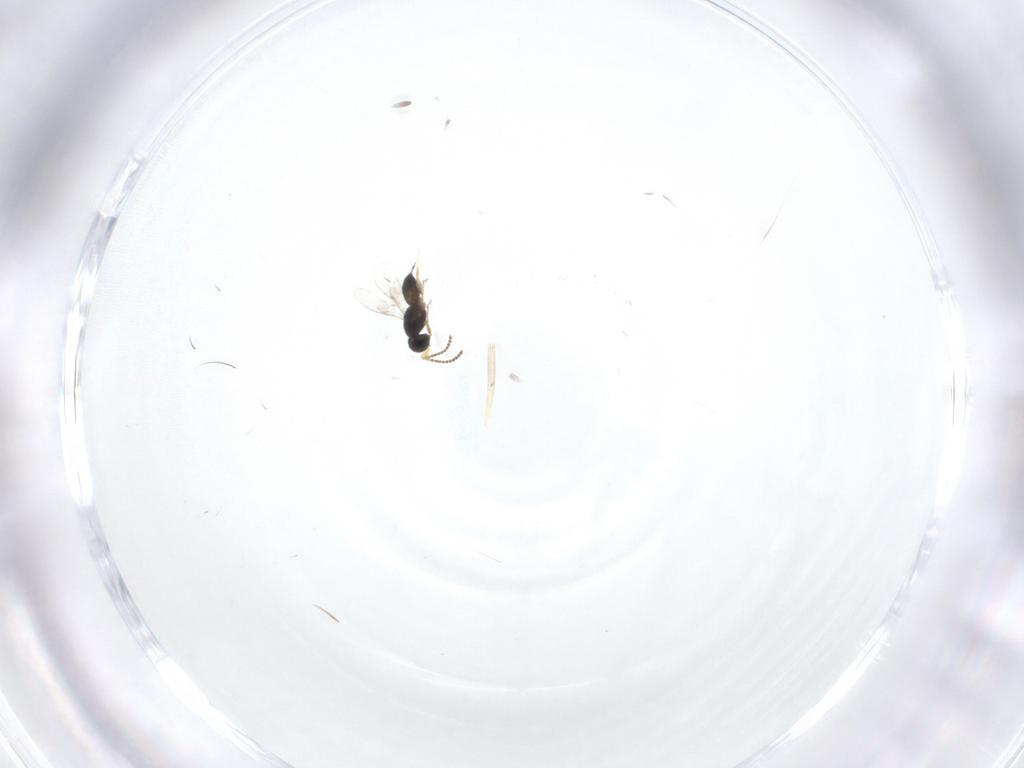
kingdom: Animalia
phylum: Arthropoda
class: Insecta
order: Hymenoptera
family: Scelionidae
